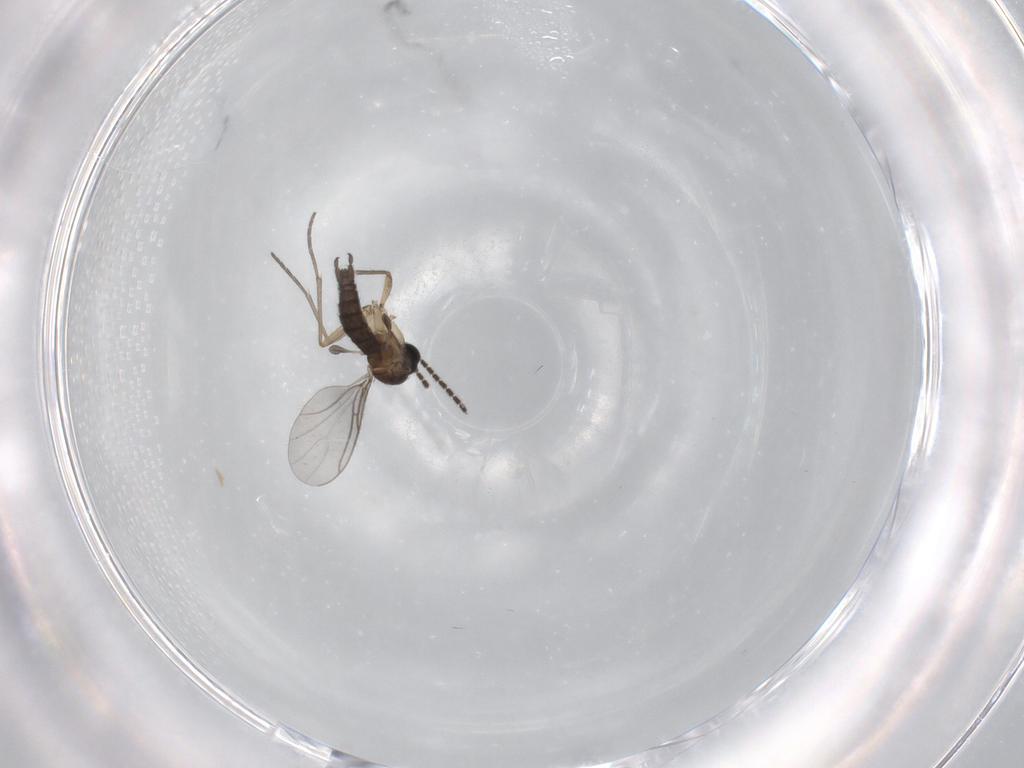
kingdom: Animalia
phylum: Arthropoda
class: Insecta
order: Diptera
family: Sciaridae
